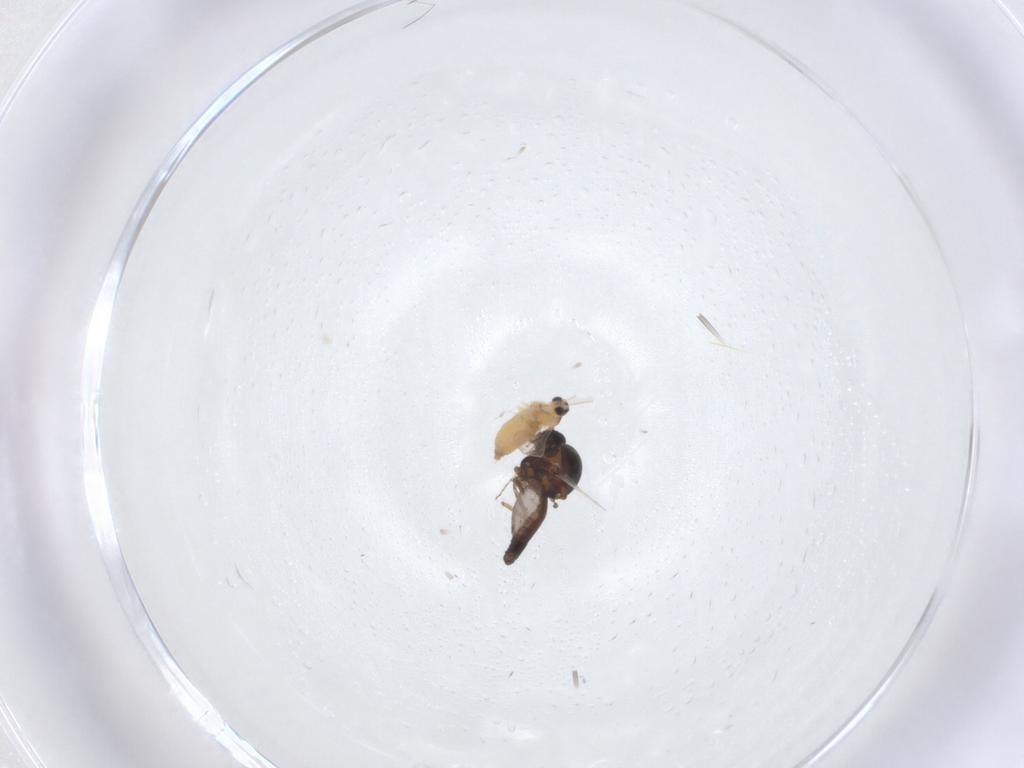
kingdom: Animalia
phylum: Arthropoda
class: Insecta
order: Diptera
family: Ceratopogonidae
